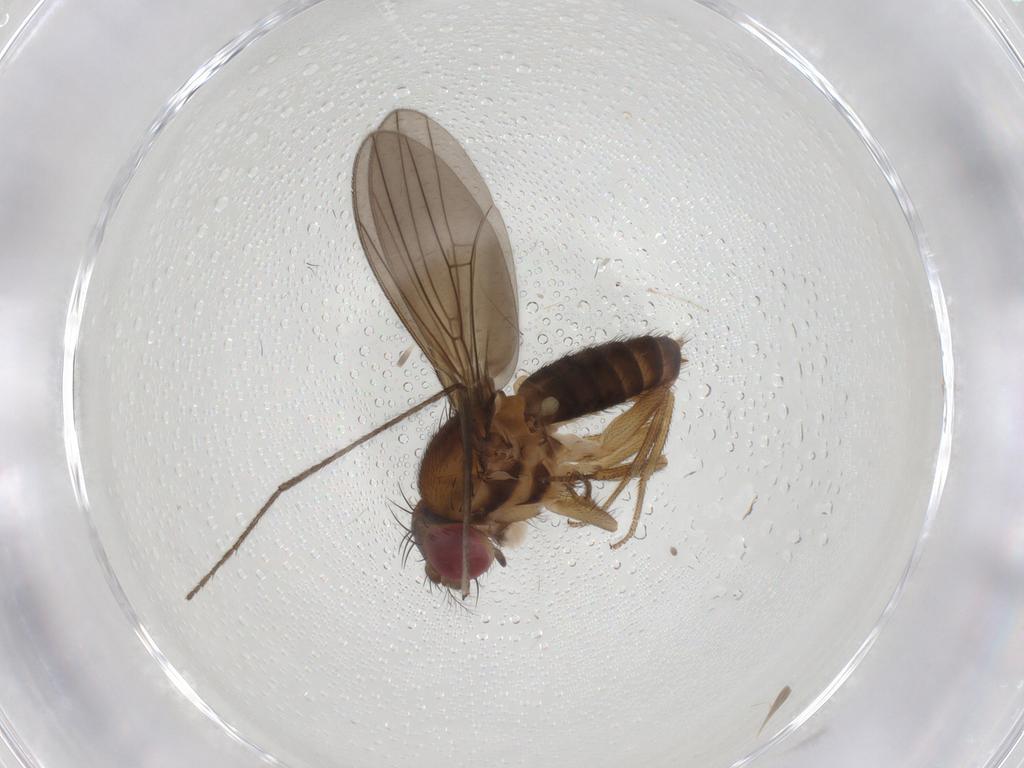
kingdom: Animalia
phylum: Arthropoda
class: Insecta
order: Diptera
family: Drosophilidae
